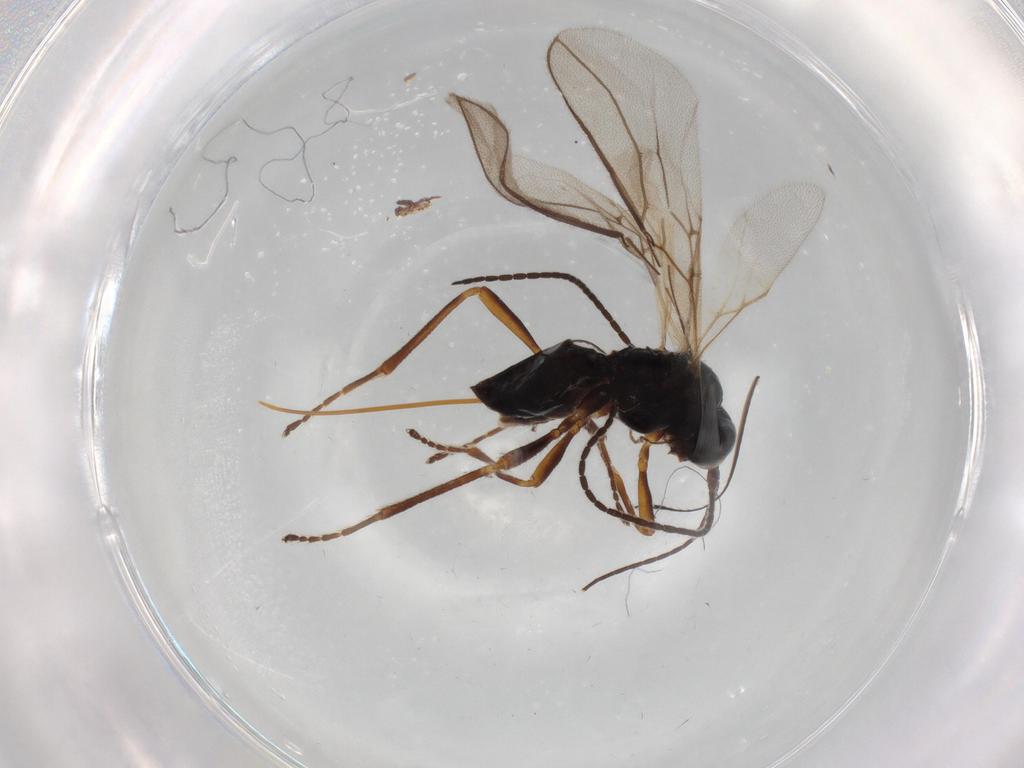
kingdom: Animalia
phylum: Arthropoda
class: Insecta
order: Hymenoptera
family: Braconidae
